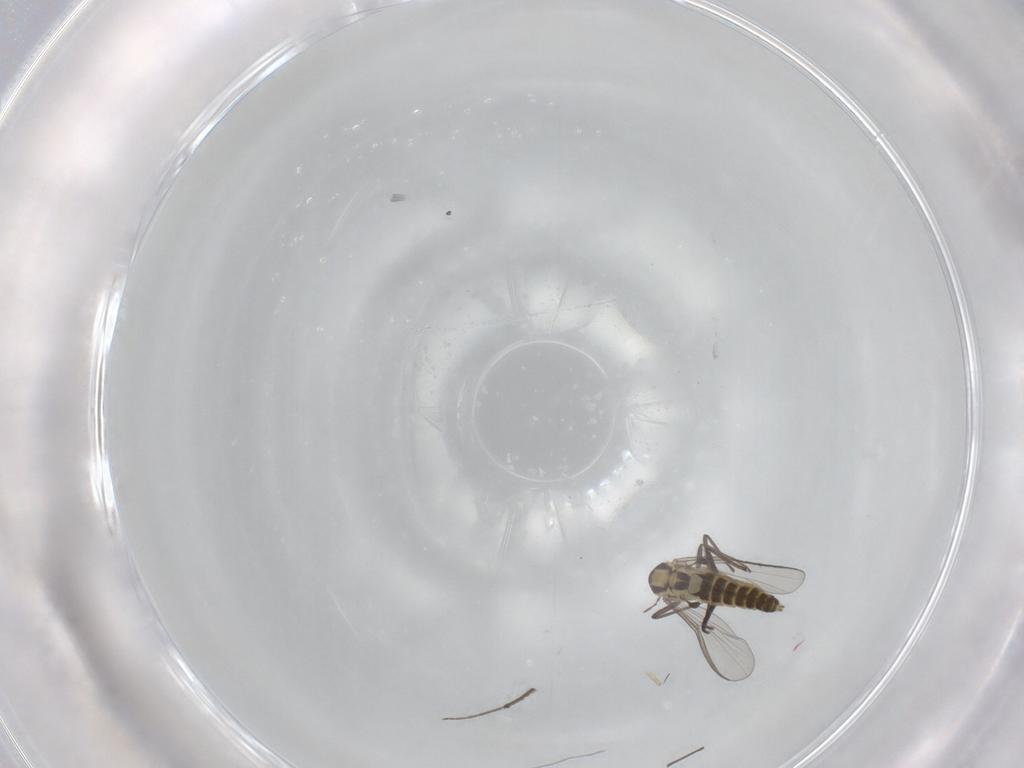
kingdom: Animalia
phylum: Arthropoda
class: Insecta
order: Diptera
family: Chironomidae
